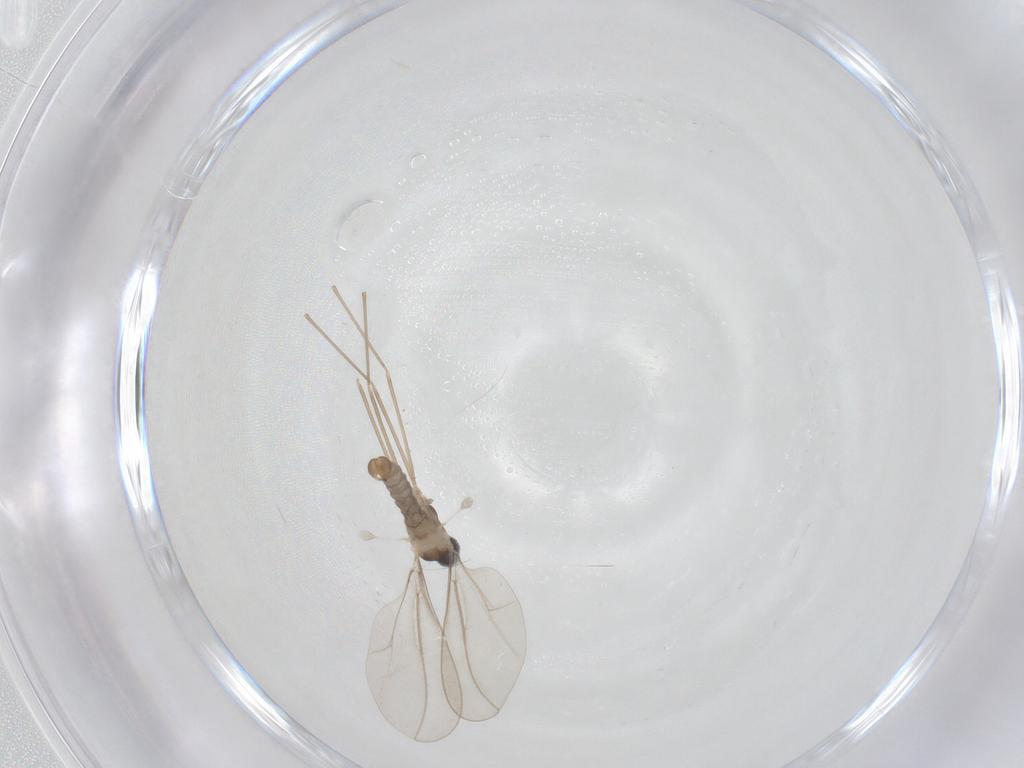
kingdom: Animalia
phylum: Arthropoda
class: Insecta
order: Diptera
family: Cecidomyiidae
